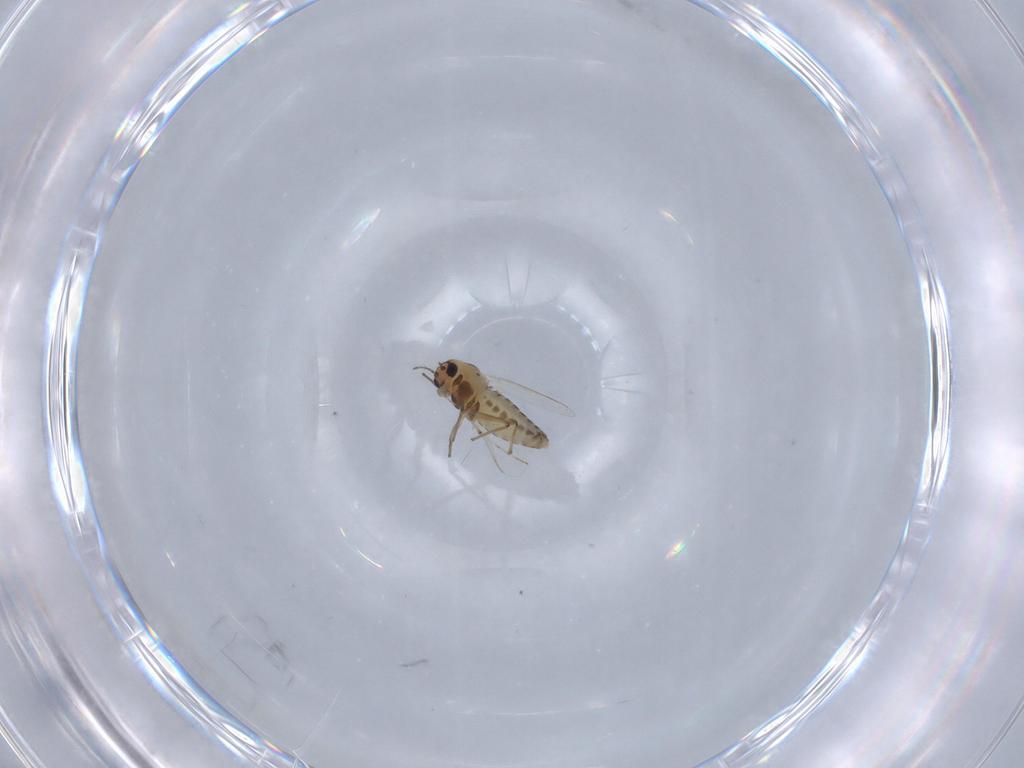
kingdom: Animalia
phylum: Arthropoda
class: Insecta
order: Diptera
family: Chironomidae
